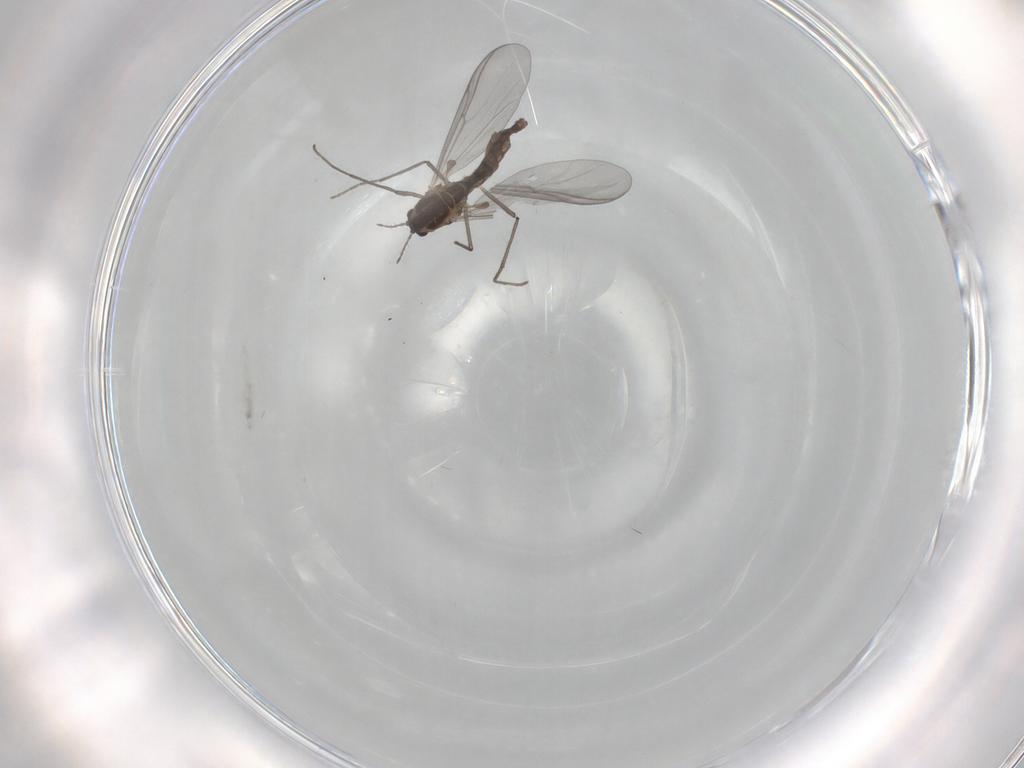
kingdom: Animalia
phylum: Arthropoda
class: Insecta
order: Diptera
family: Chironomidae
